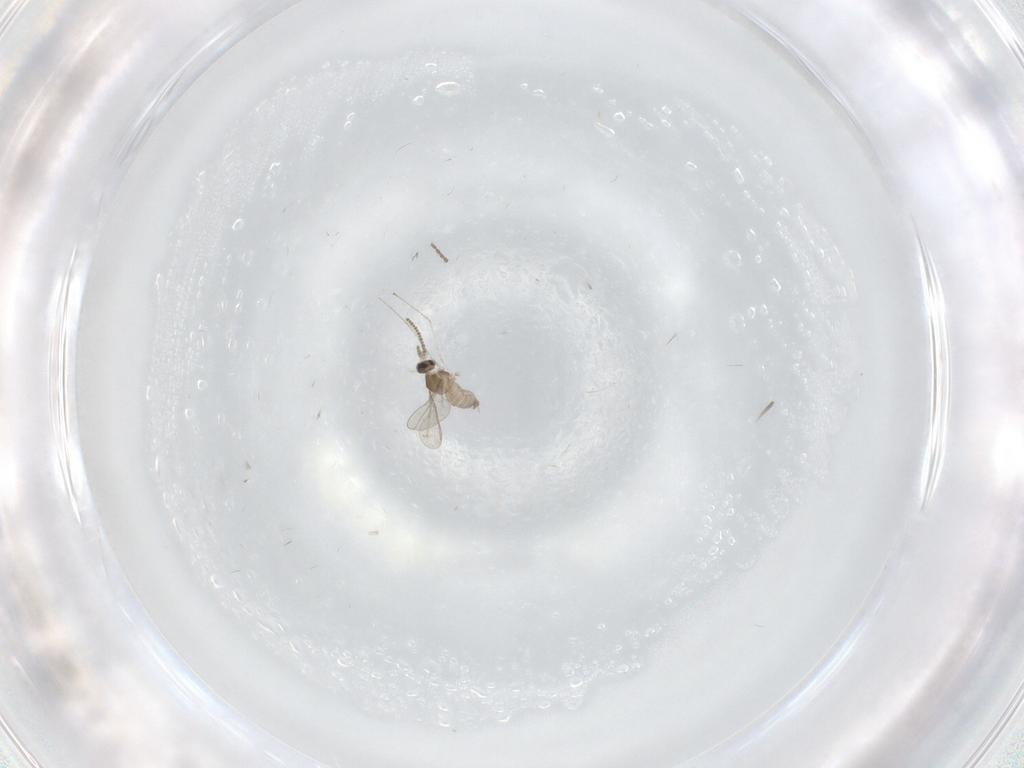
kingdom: Animalia
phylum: Arthropoda
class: Insecta
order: Diptera
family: Cecidomyiidae
